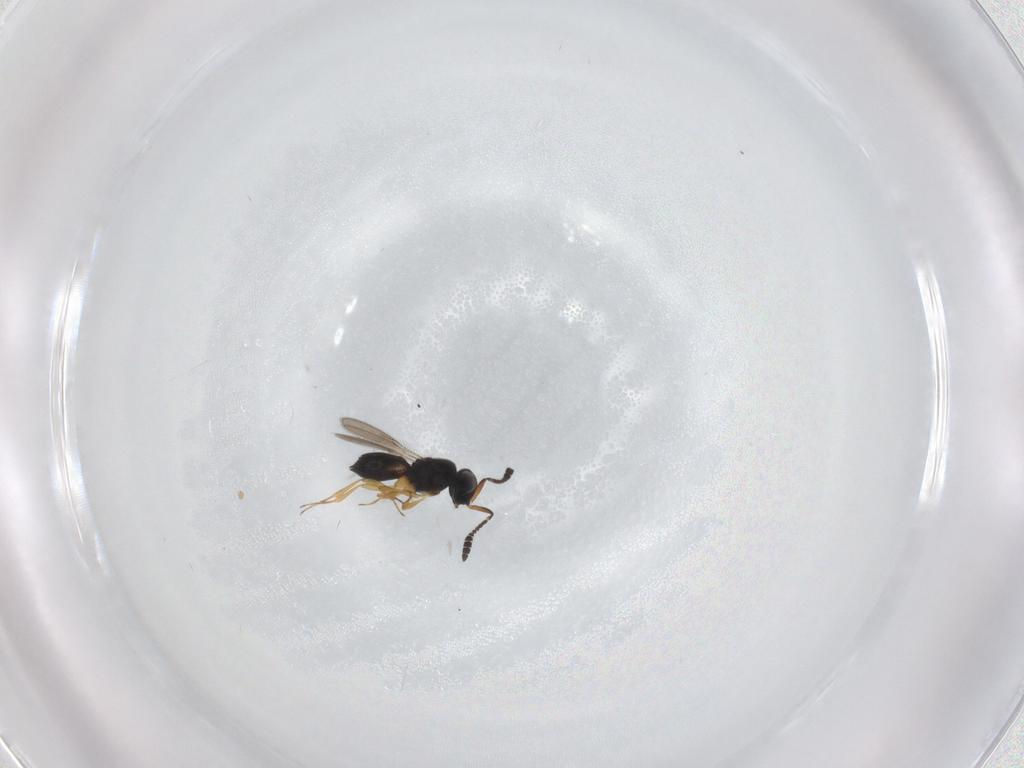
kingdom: Animalia
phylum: Arthropoda
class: Insecta
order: Hymenoptera
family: Scelionidae
